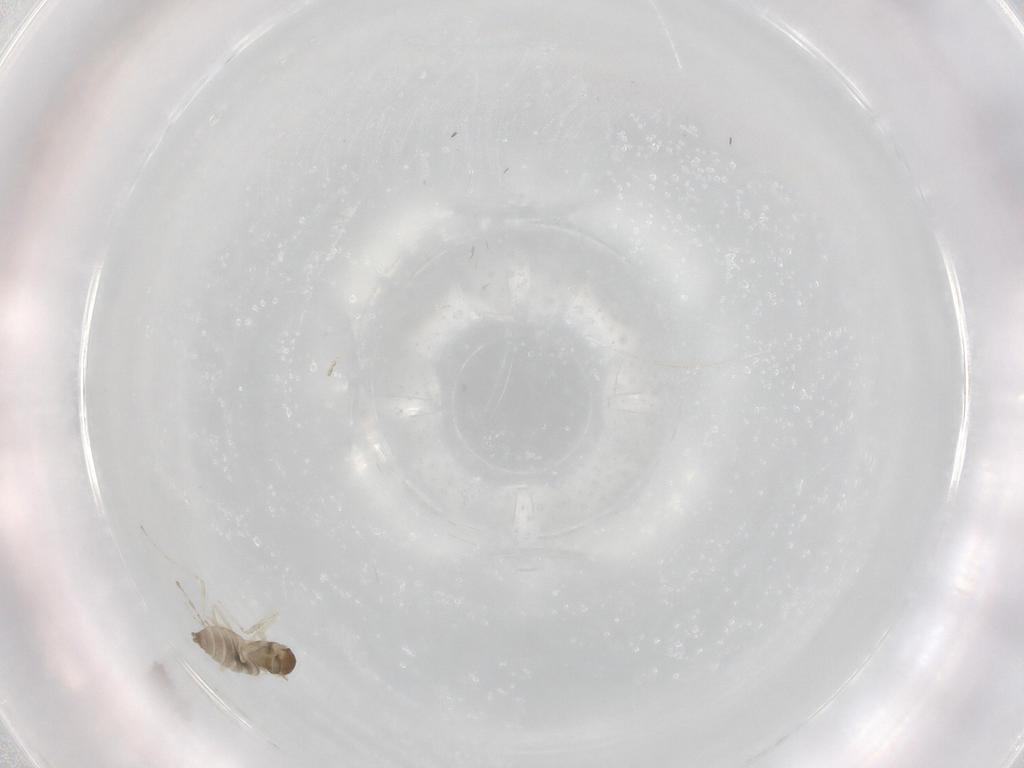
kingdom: Animalia
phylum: Arthropoda
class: Insecta
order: Diptera
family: Cecidomyiidae
